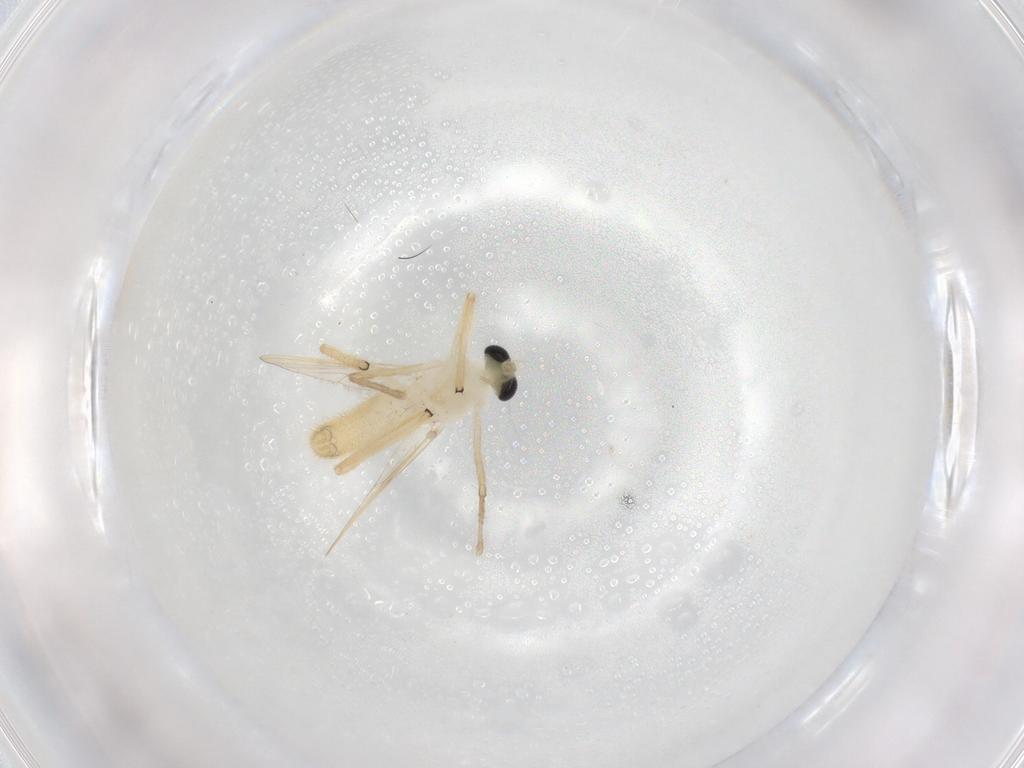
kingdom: Animalia
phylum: Arthropoda
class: Insecta
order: Diptera
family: Chironomidae
